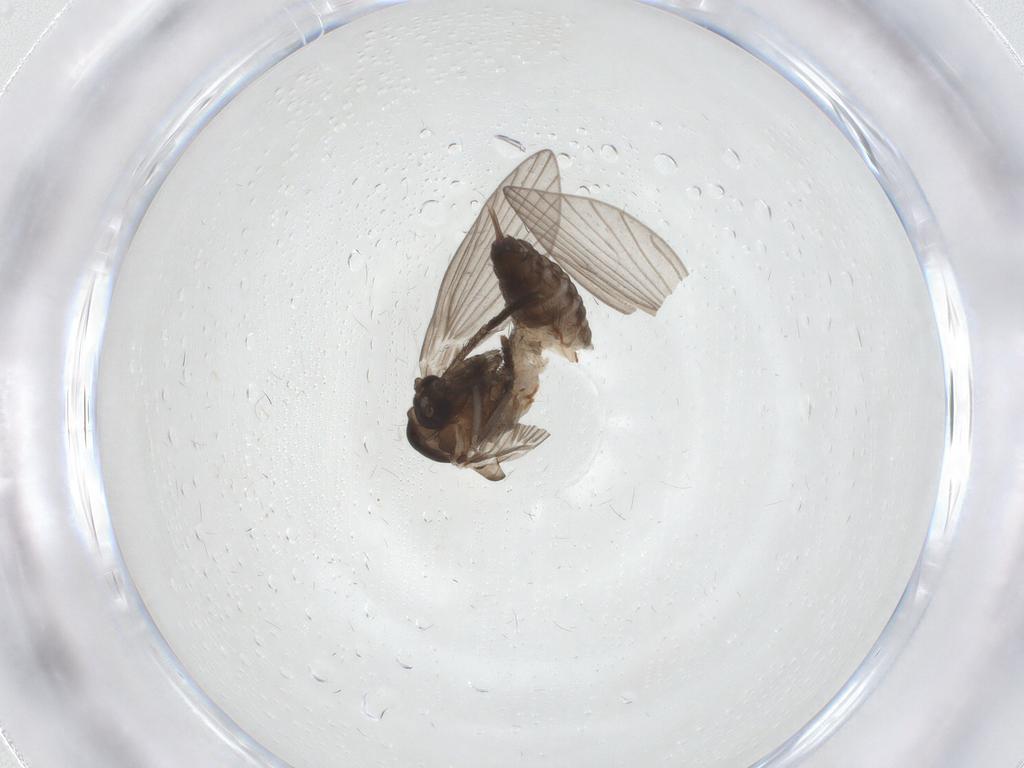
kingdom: Animalia
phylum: Arthropoda
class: Insecta
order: Diptera
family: Psychodidae
